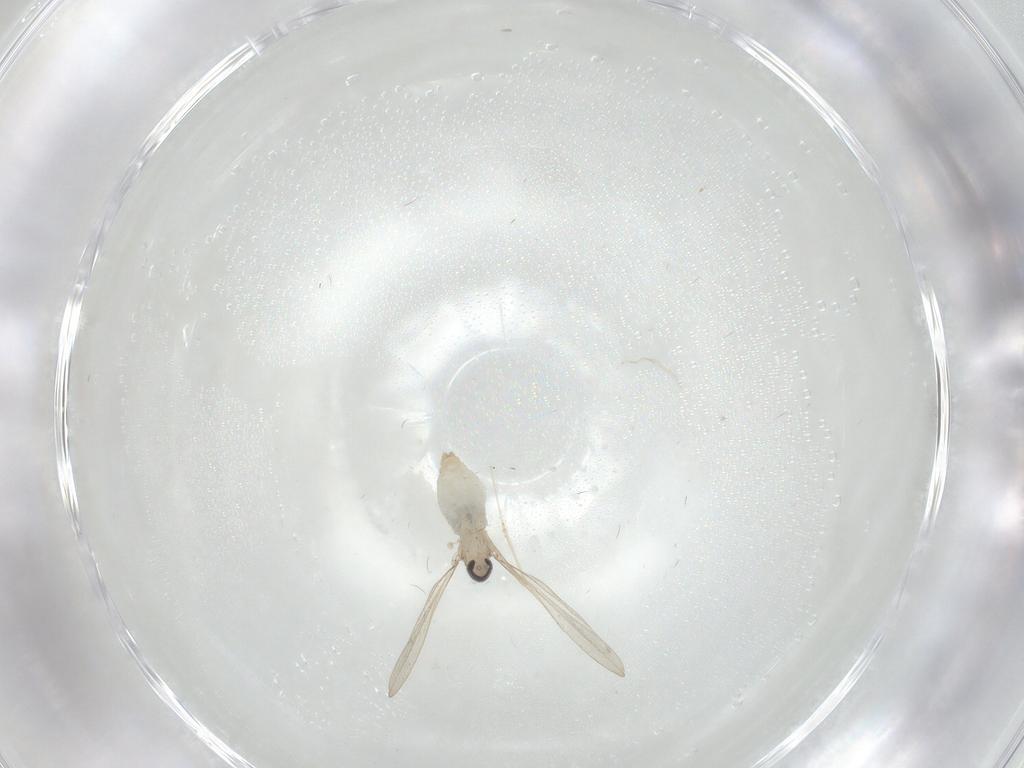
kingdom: Animalia
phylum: Arthropoda
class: Insecta
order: Diptera
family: Cecidomyiidae
